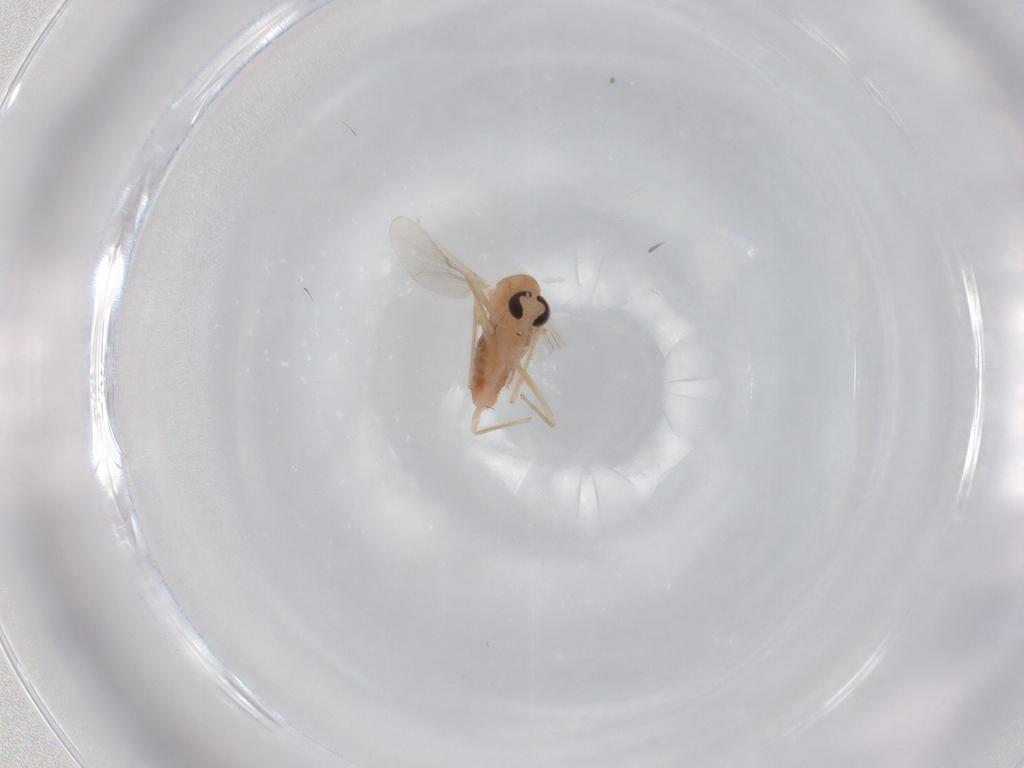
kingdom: Animalia
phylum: Arthropoda
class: Insecta
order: Diptera
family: Chironomidae
